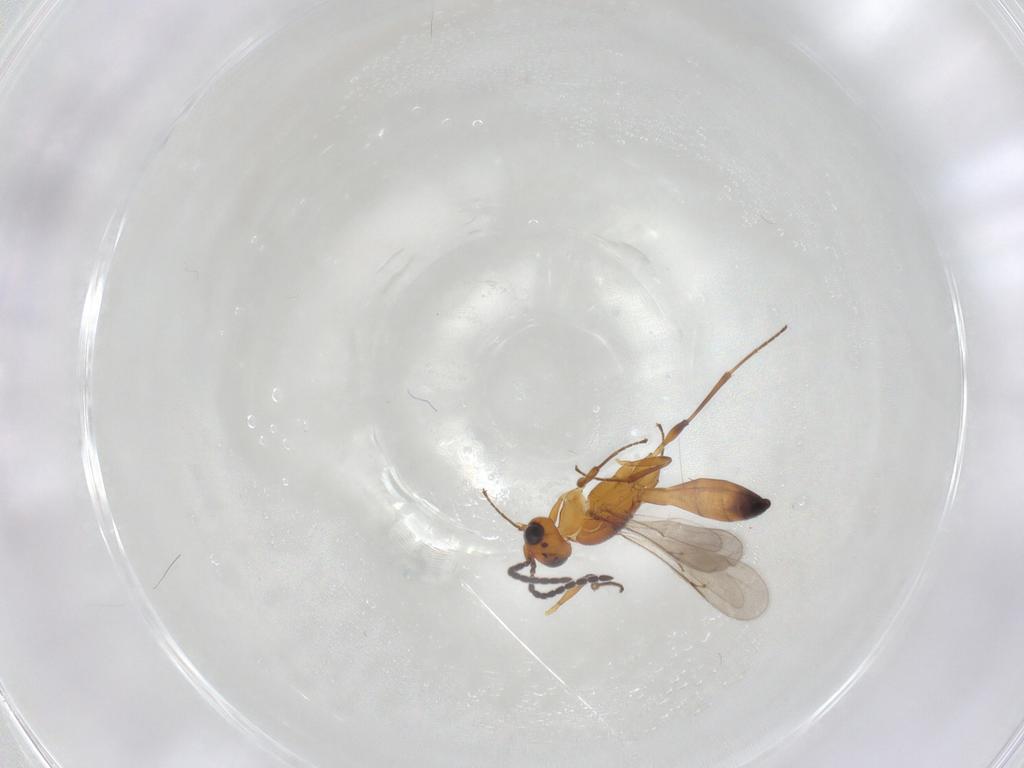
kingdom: Animalia
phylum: Arthropoda
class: Insecta
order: Hymenoptera
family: Scelionidae
